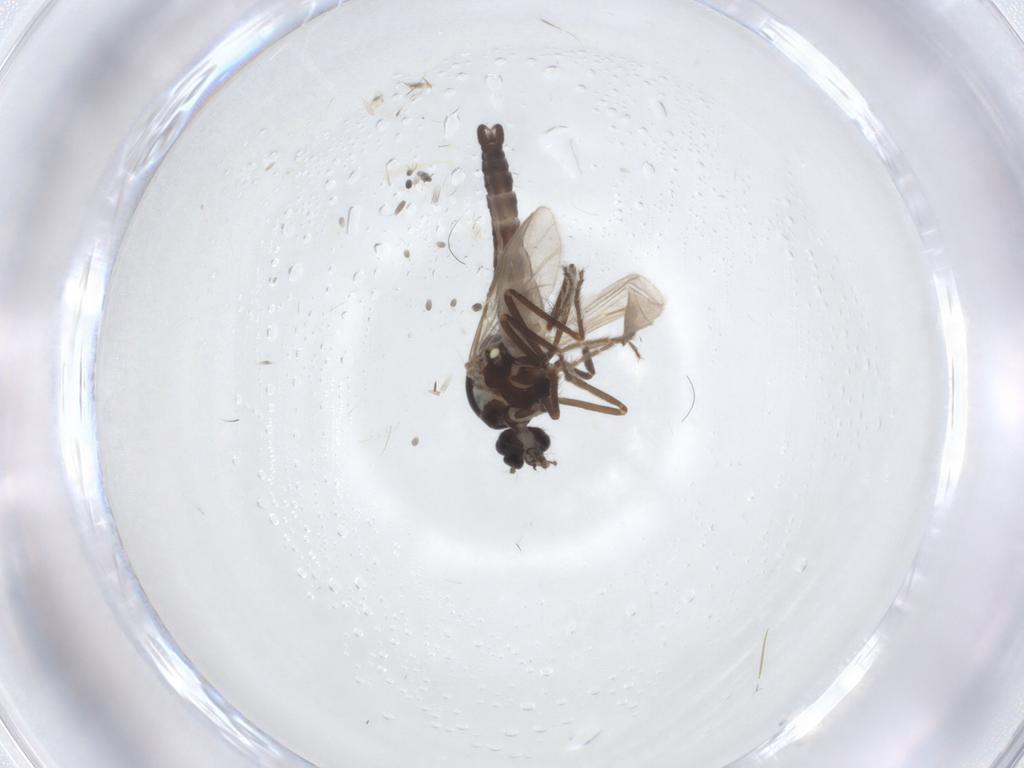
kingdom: Animalia
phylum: Arthropoda
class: Insecta
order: Diptera
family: Ceratopogonidae
